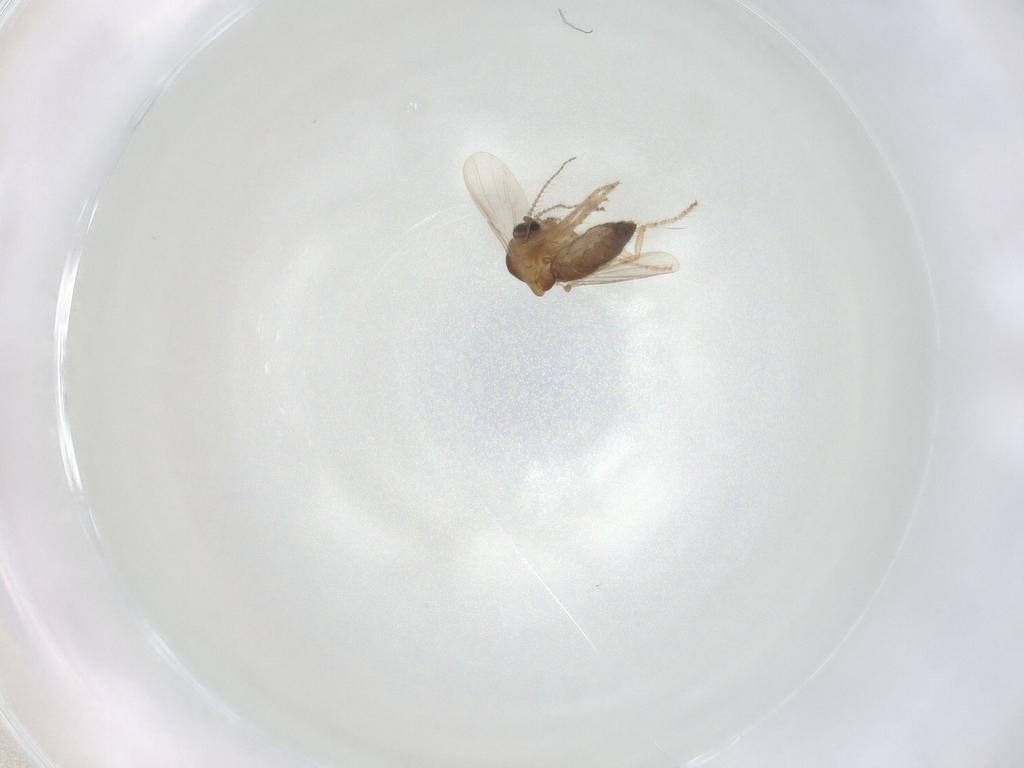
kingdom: Animalia
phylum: Arthropoda
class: Insecta
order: Diptera
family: Ceratopogonidae
